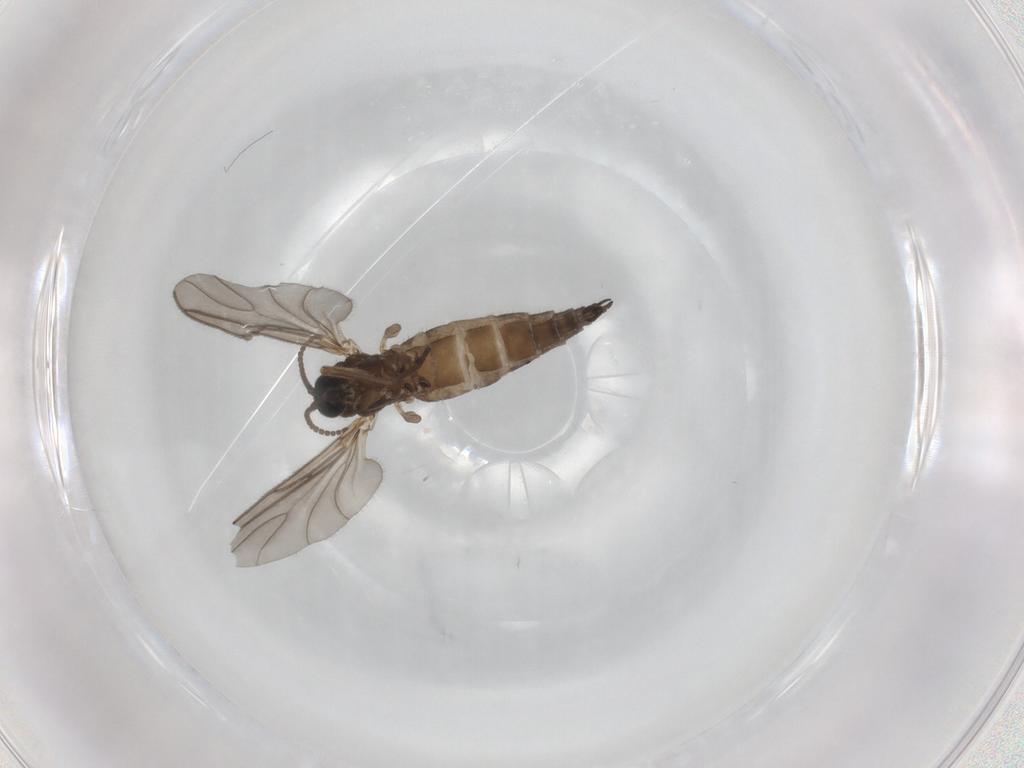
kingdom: Animalia
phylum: Arthropoda
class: Insecta
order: Diptera
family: Sciaridae
